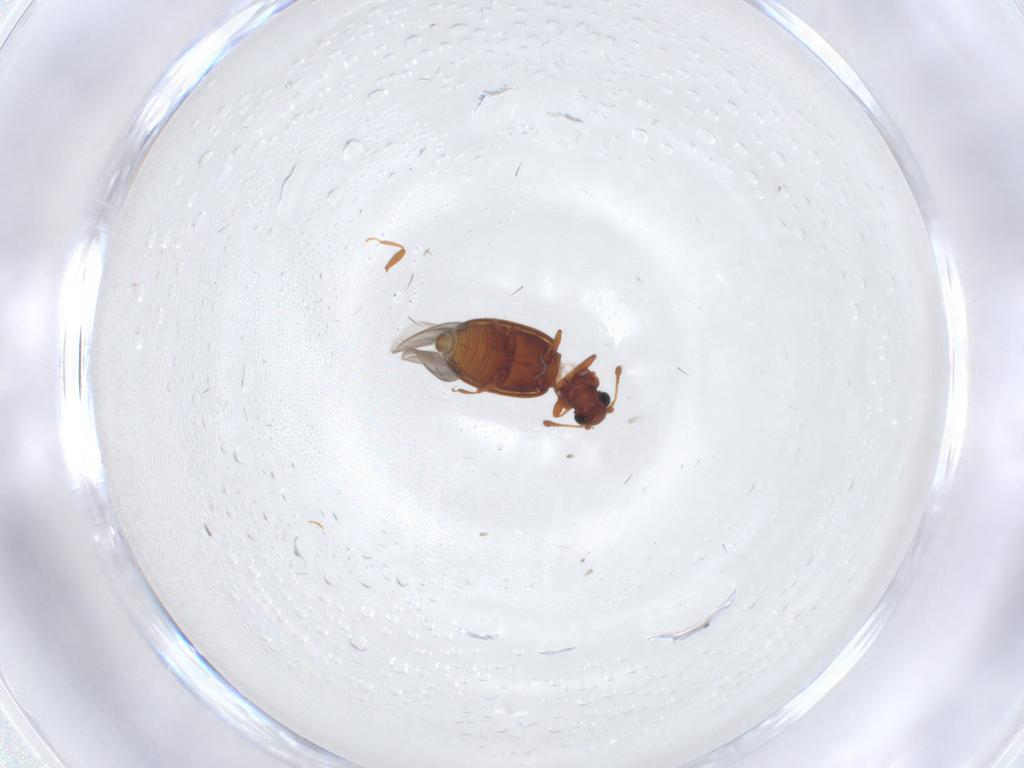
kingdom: Animalia
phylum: Arthropoda
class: Insecta
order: Coleoptera
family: Latridiidae
